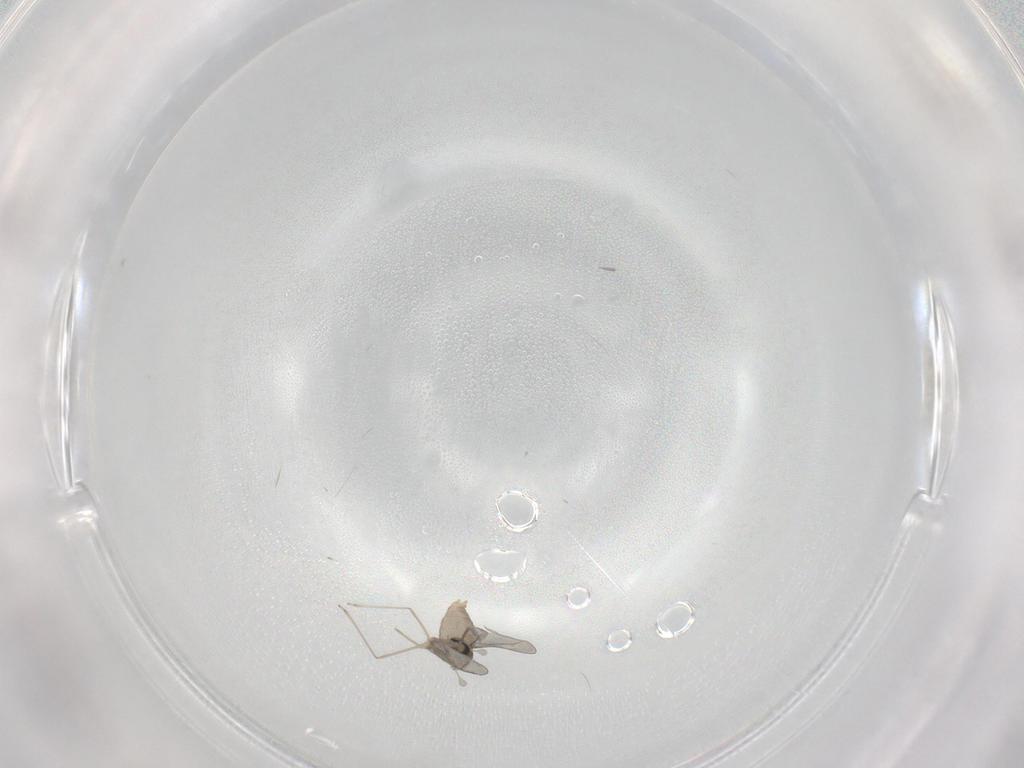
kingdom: Animalia
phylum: Arthropoda
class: Insecta
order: Diptera
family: Cecidomyiidae
